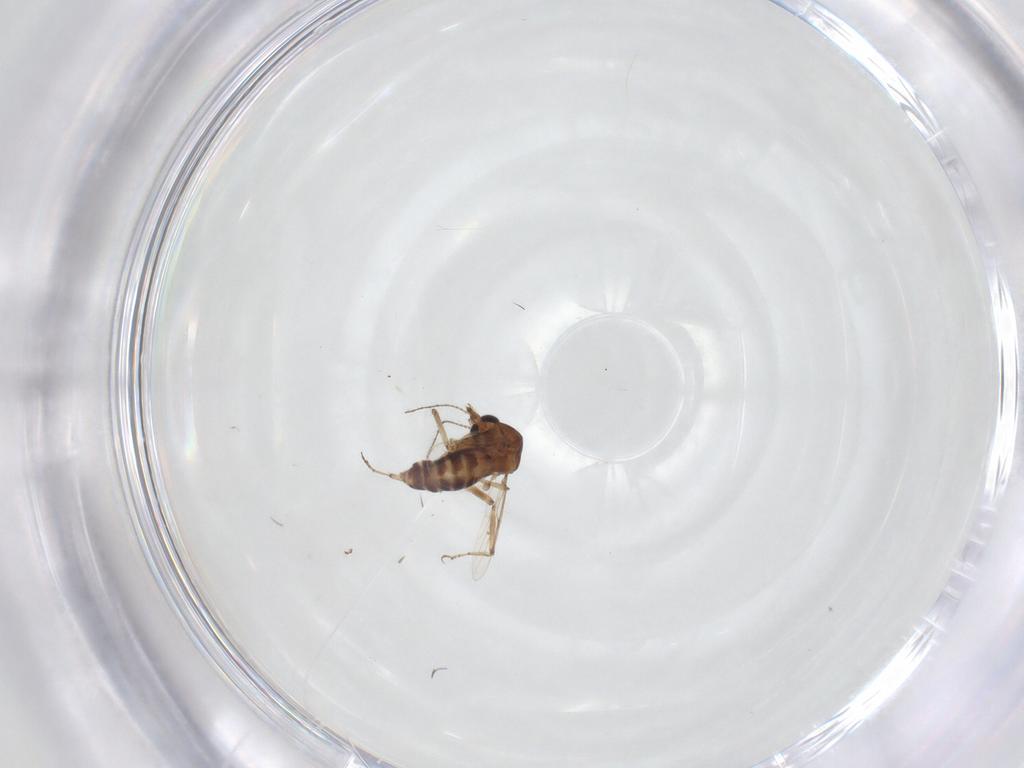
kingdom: Animalia
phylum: Arthropoda
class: Insecta
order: Diptera
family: Ceratopogonidae
